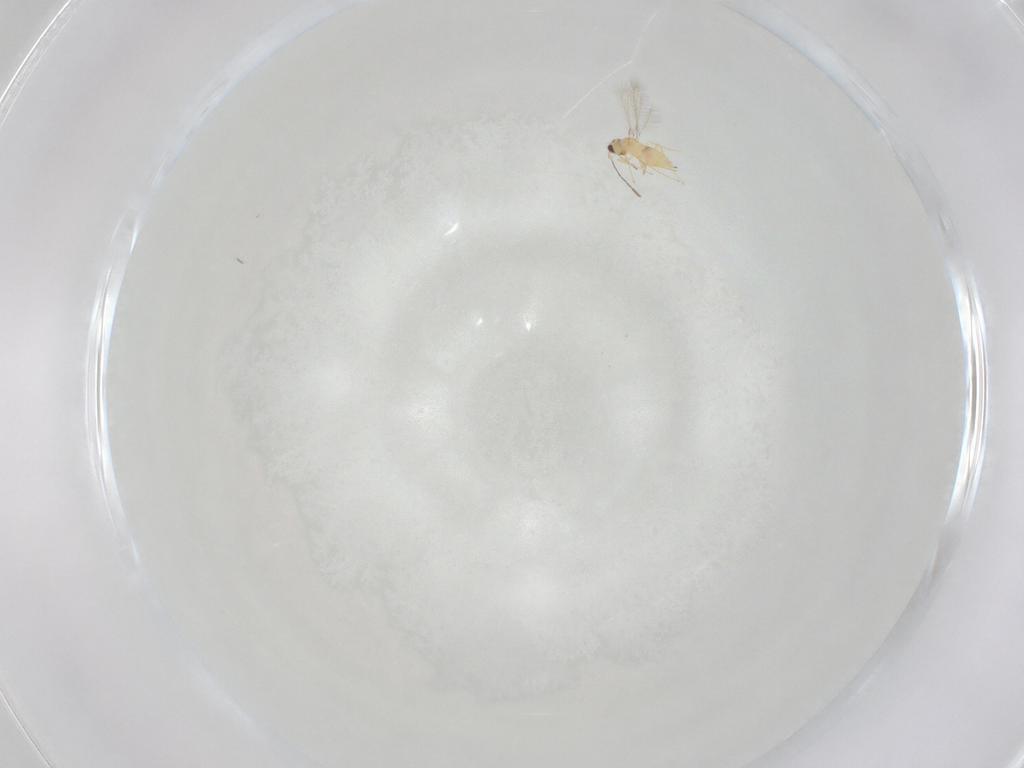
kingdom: Animalia
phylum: Arthropoda
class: Insecta
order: Hymenoptera
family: Mymaridae
